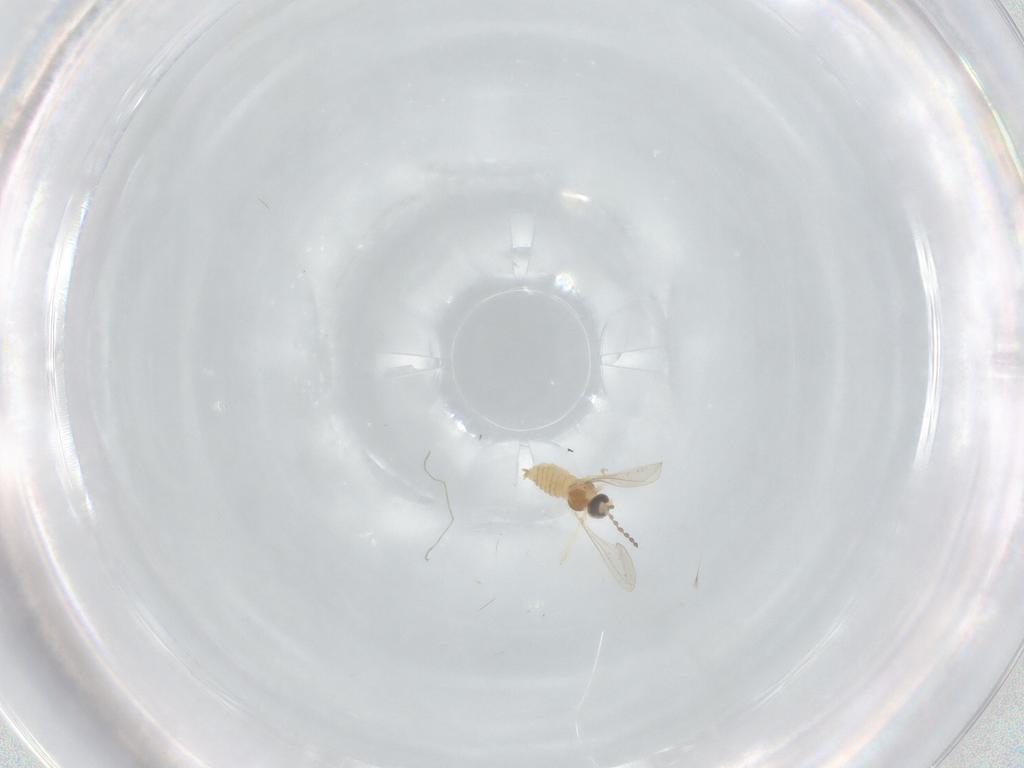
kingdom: Animalia
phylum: Arthropoda
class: Insecta
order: Diptera
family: Cecidomyiidae
